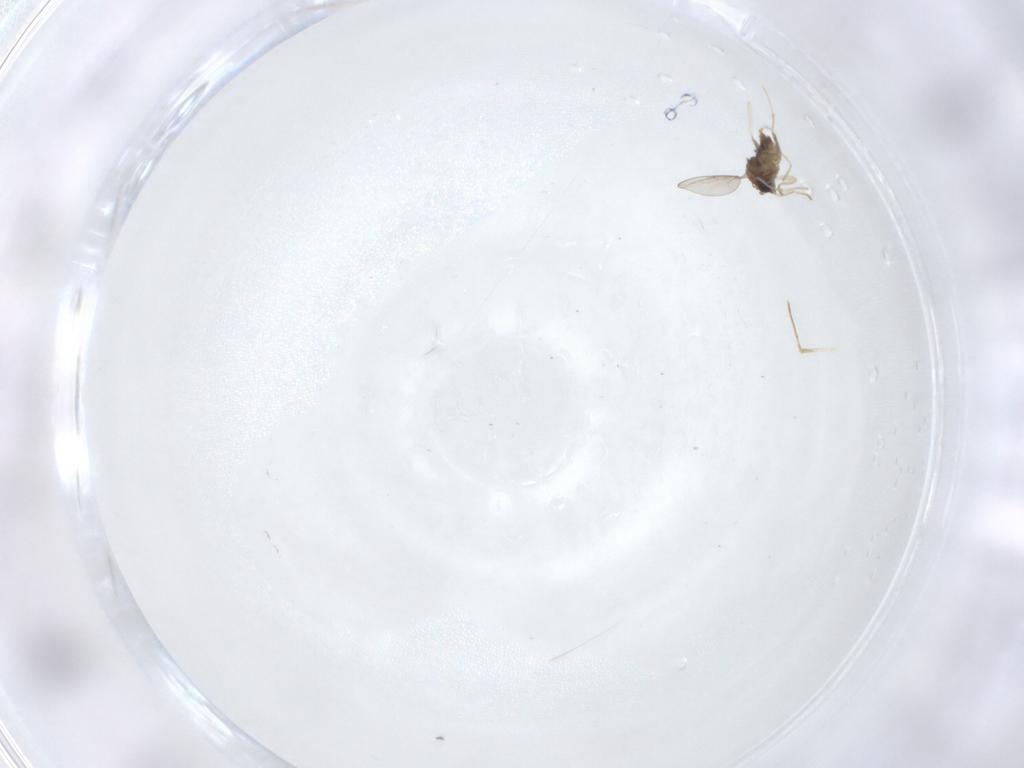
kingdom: Animalia
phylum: Arthropoda
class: Insecta
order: Diptera
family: Cecidomyiidae
